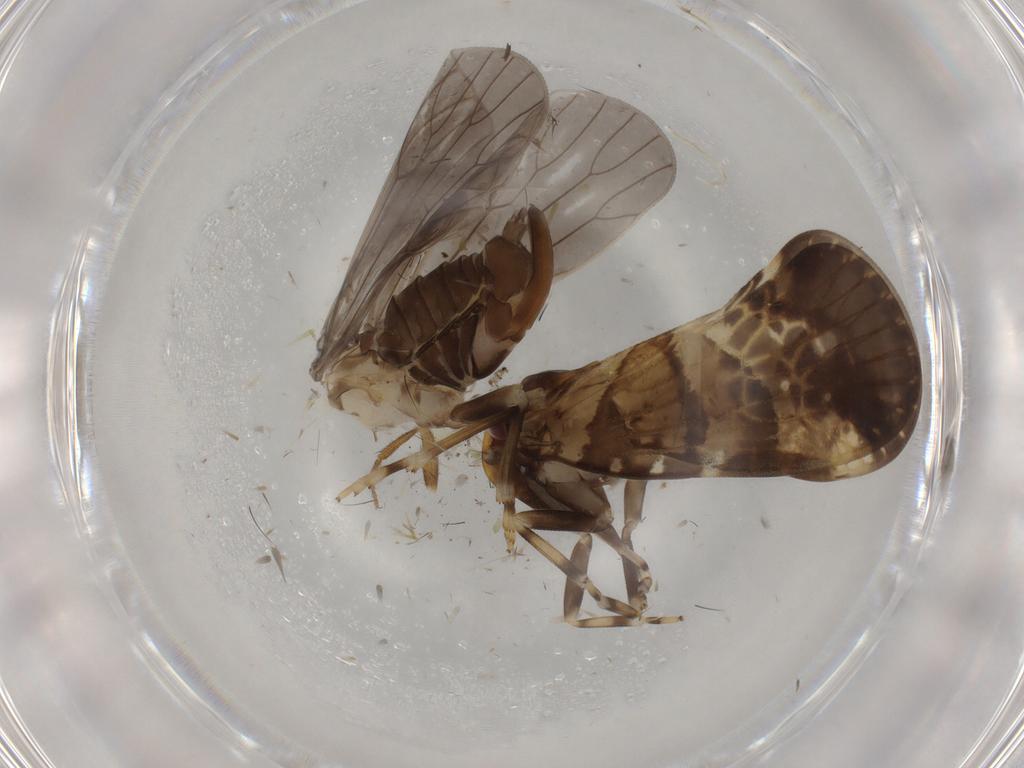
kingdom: Animalia
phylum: Arthropoda
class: Insecta
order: Hemiptera
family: Cixiidae
